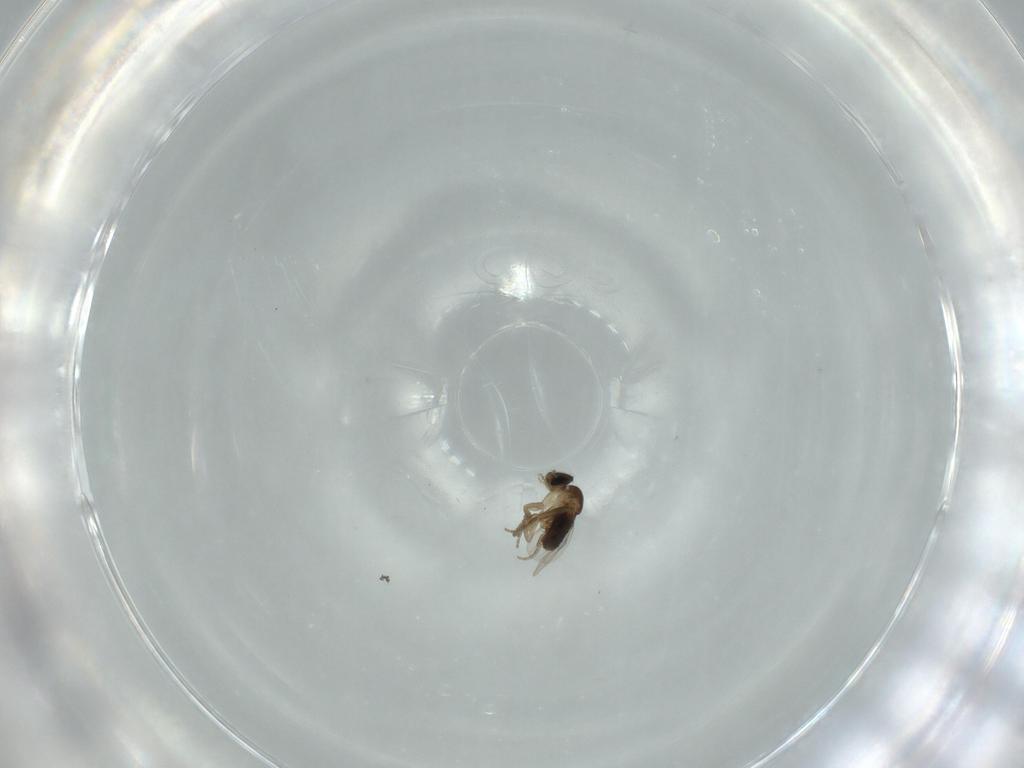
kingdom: Animalia
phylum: Arthropoda
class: Insecta
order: Diptera
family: Phoridae
